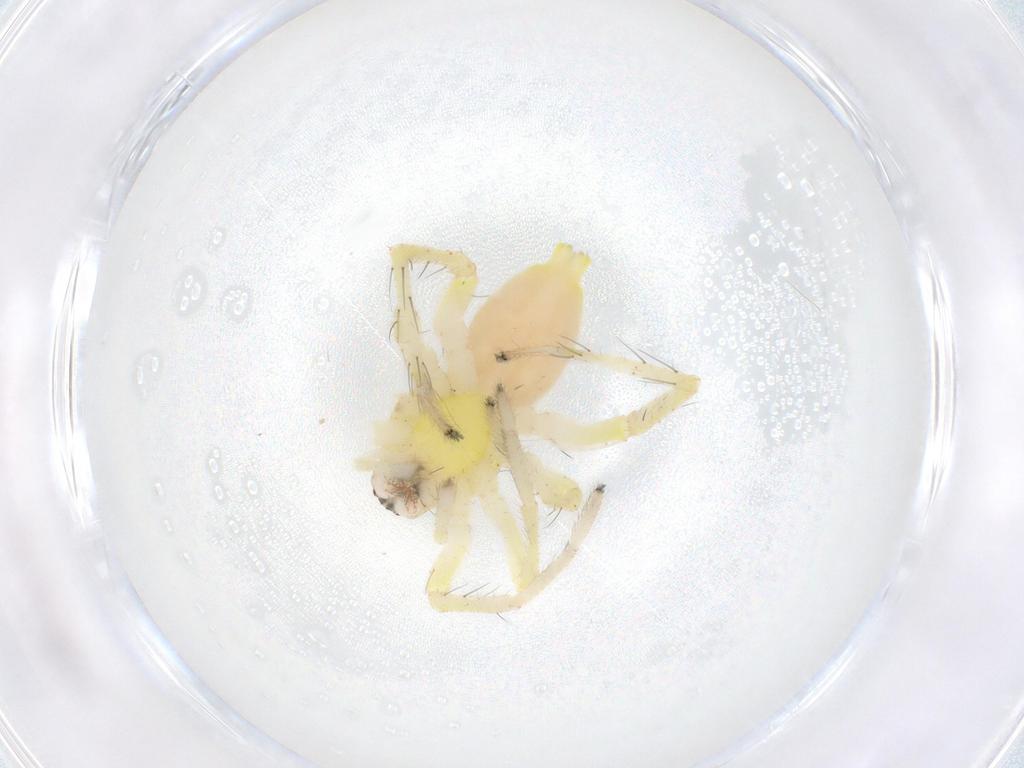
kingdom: Animalia
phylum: Arthropoda
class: Arachnida
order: Araneae
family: Anyphaenidae
